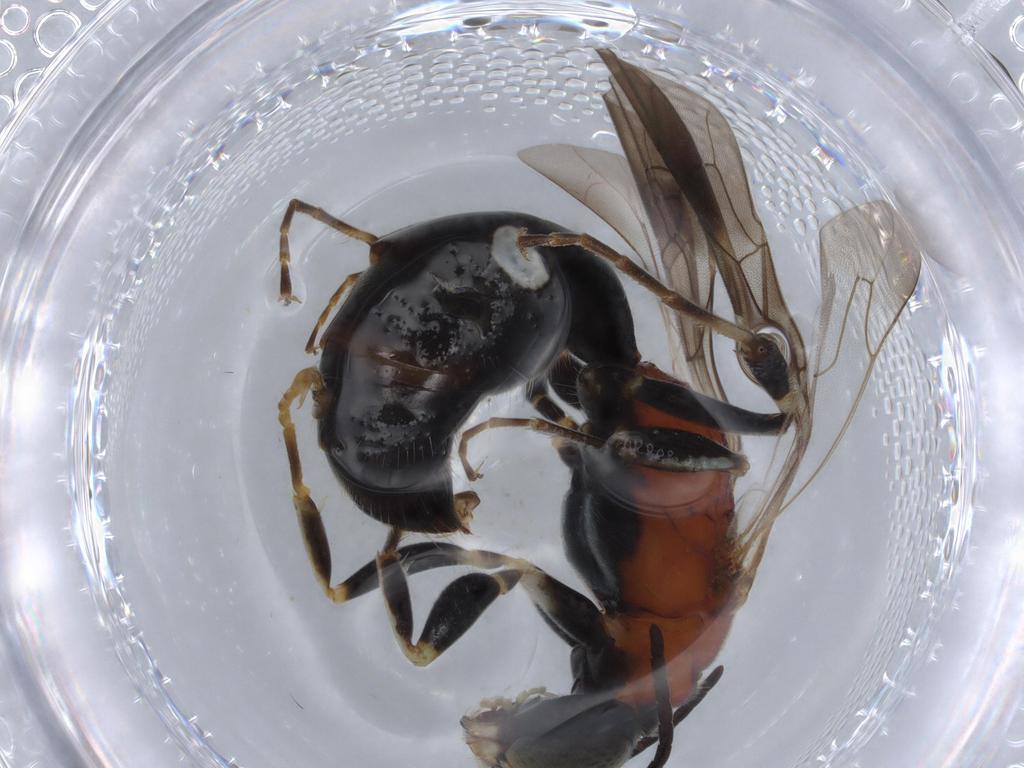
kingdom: Animalia
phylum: Arthropoda
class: Insecta
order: Hymenoptera
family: Bembicidae
